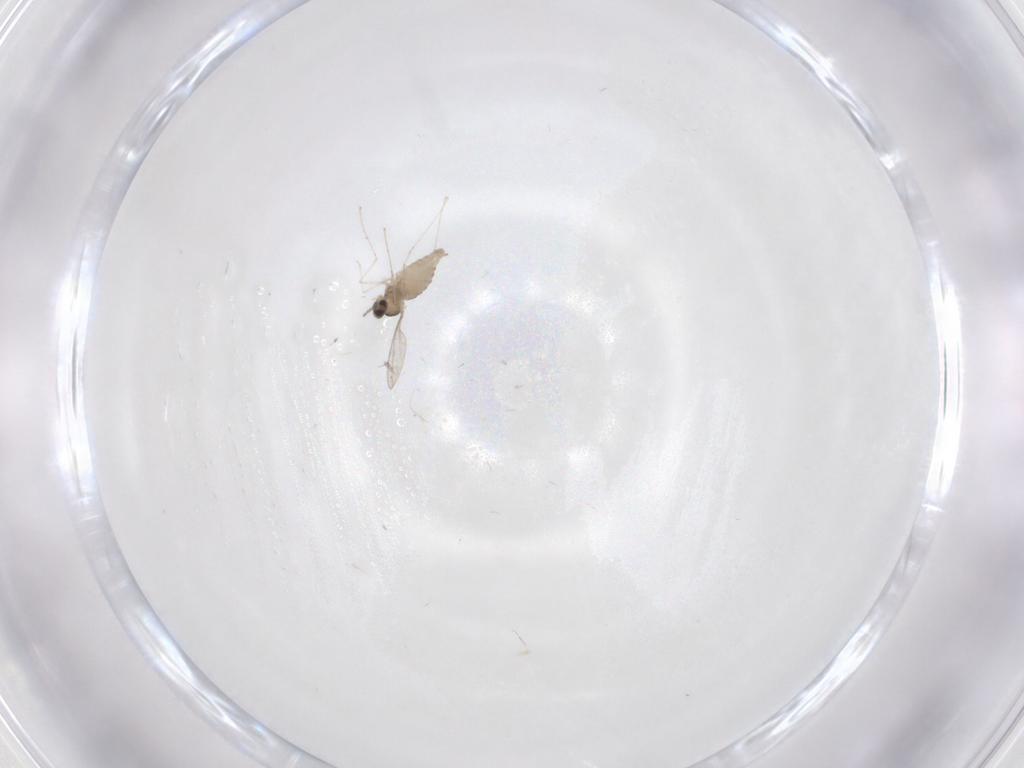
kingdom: Animalia
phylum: Arthropoda
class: Insecta
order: Diptera
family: Cecidomyiidae
